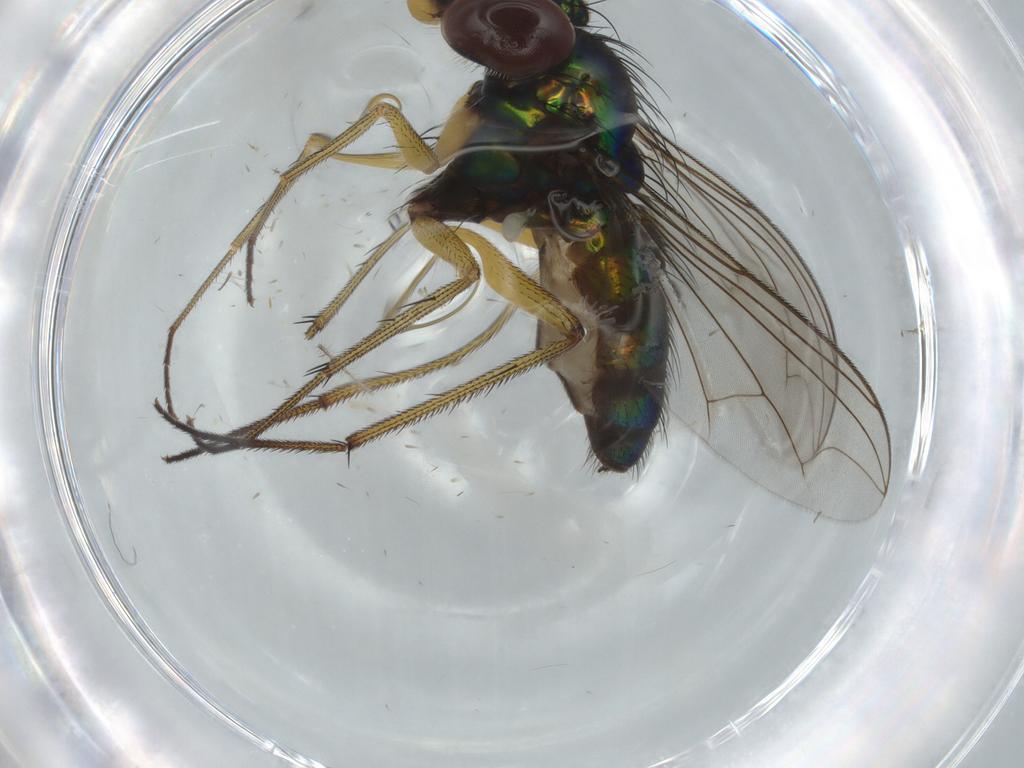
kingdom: Animalia
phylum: Arthropoda
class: Insecta
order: Diptera
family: Dolichopodidae
